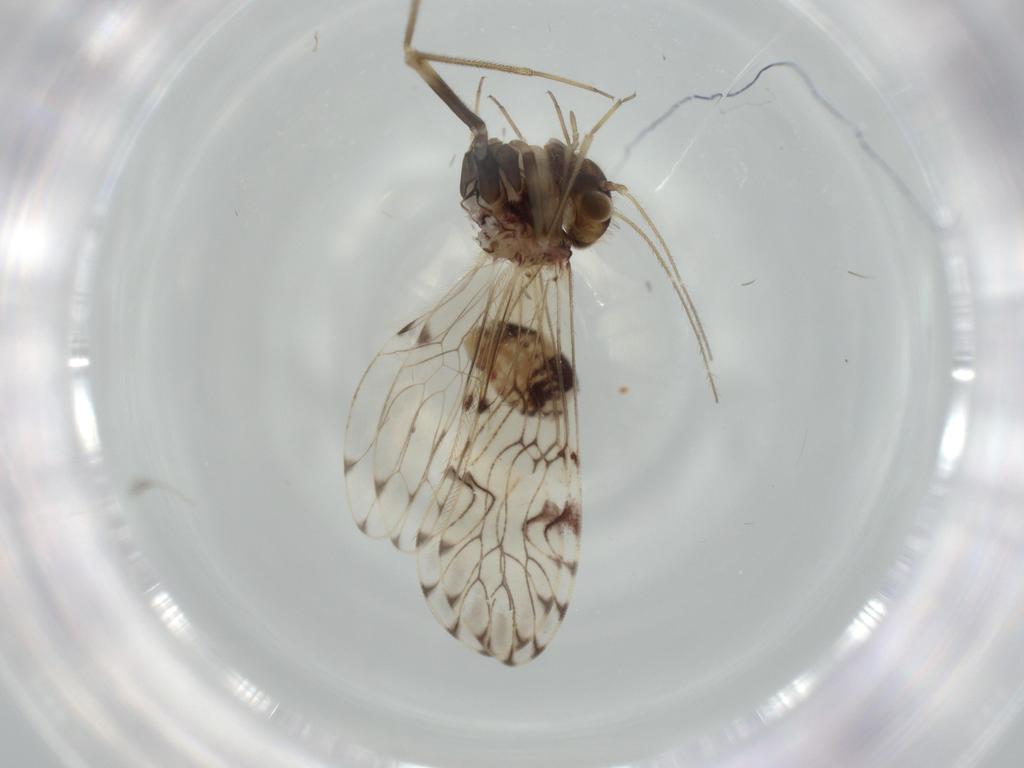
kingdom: Animalia
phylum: Arthropoda
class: Insecta
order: Psocodea
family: Epipsocidae
